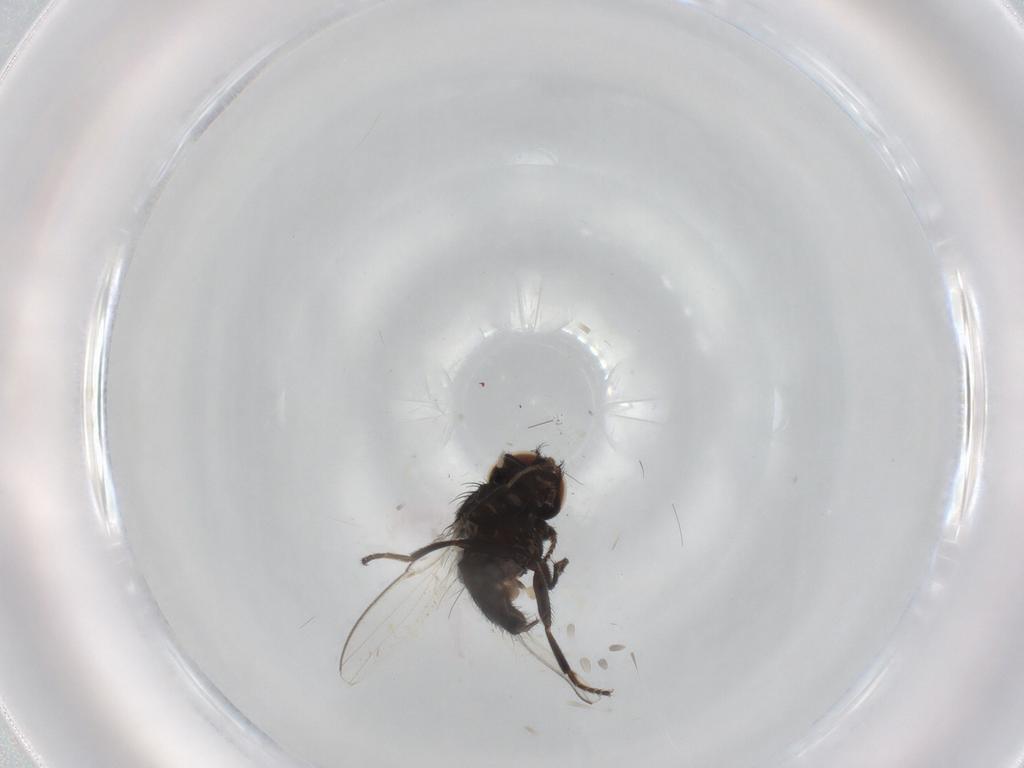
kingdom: Animalia
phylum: Arthropoda
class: Insecta
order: Diptera
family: Milichiidae
